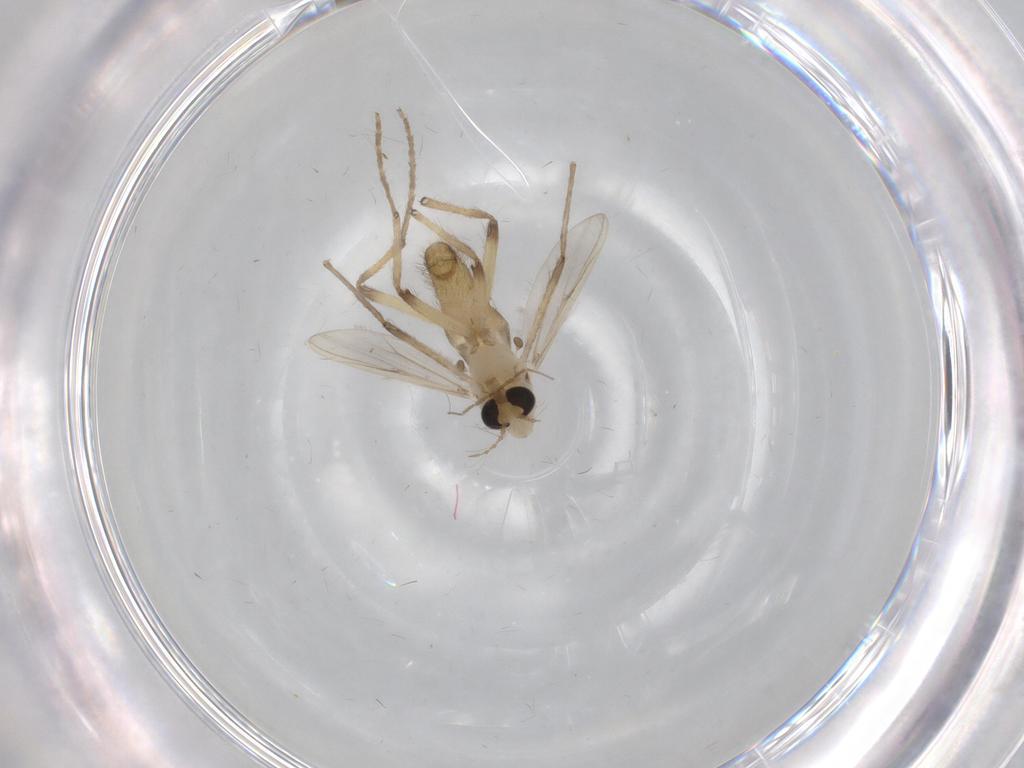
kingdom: Animalia
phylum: Arthropoda
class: Insecta
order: Diptera
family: Chironomidae
